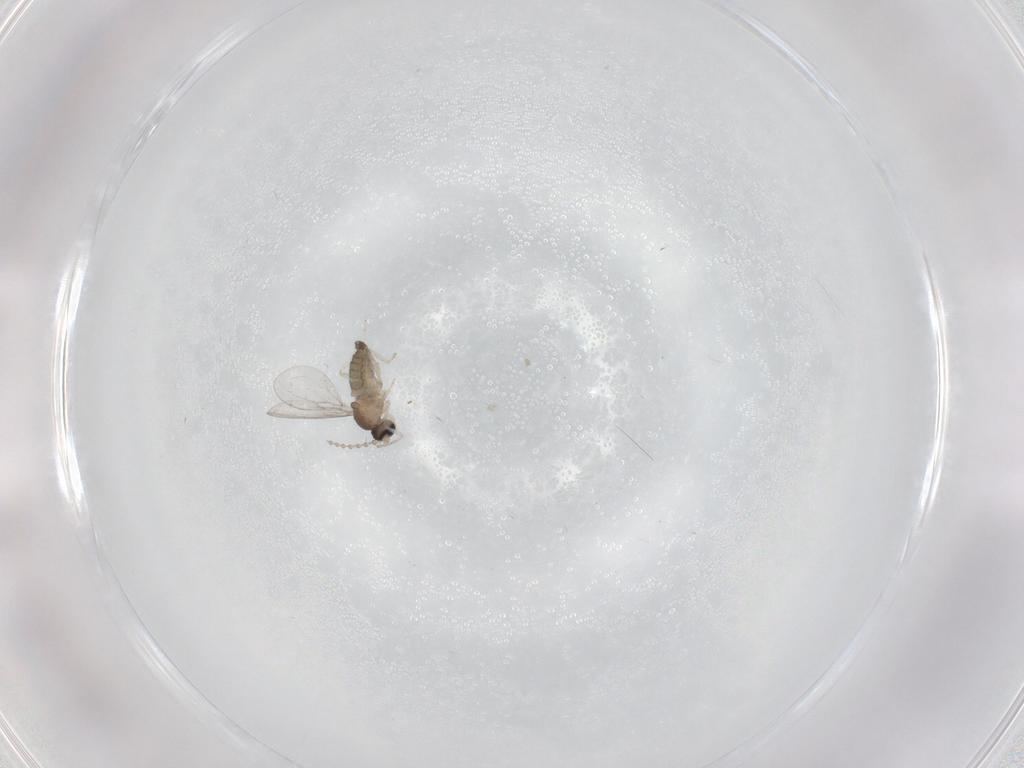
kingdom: Animalia
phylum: Arthropoda
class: Insecta
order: Diptera
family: Cecidomyiidae
